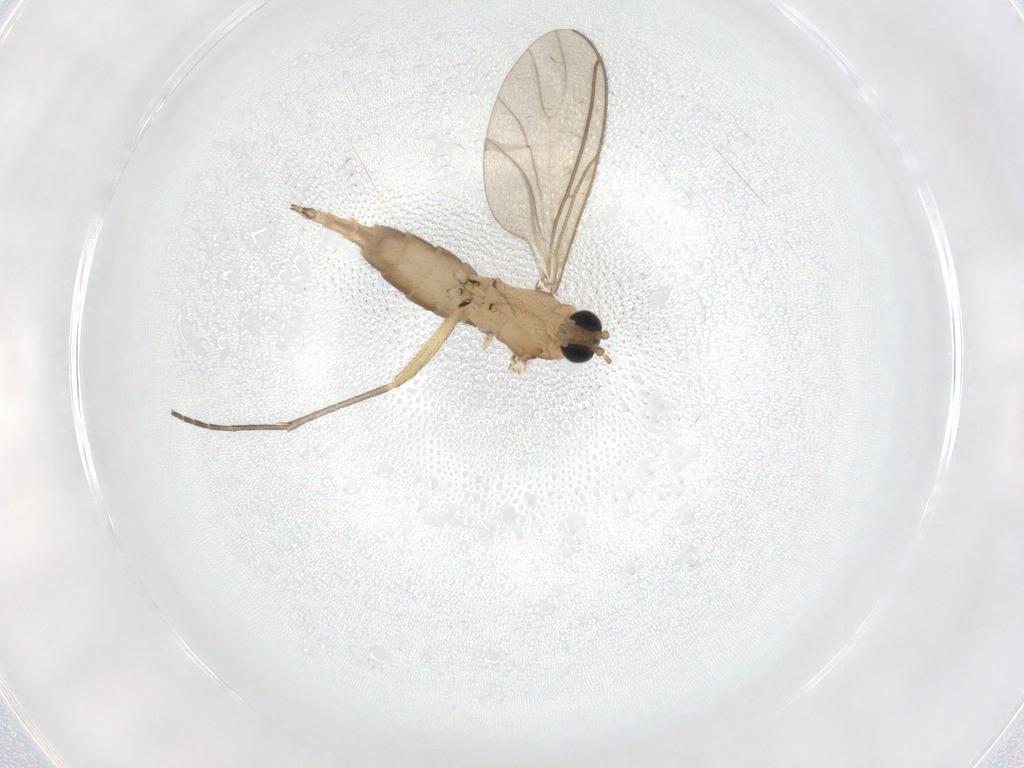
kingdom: Animalia
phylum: Arthropoda
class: Insecta
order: Diptera
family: Sciaridae
